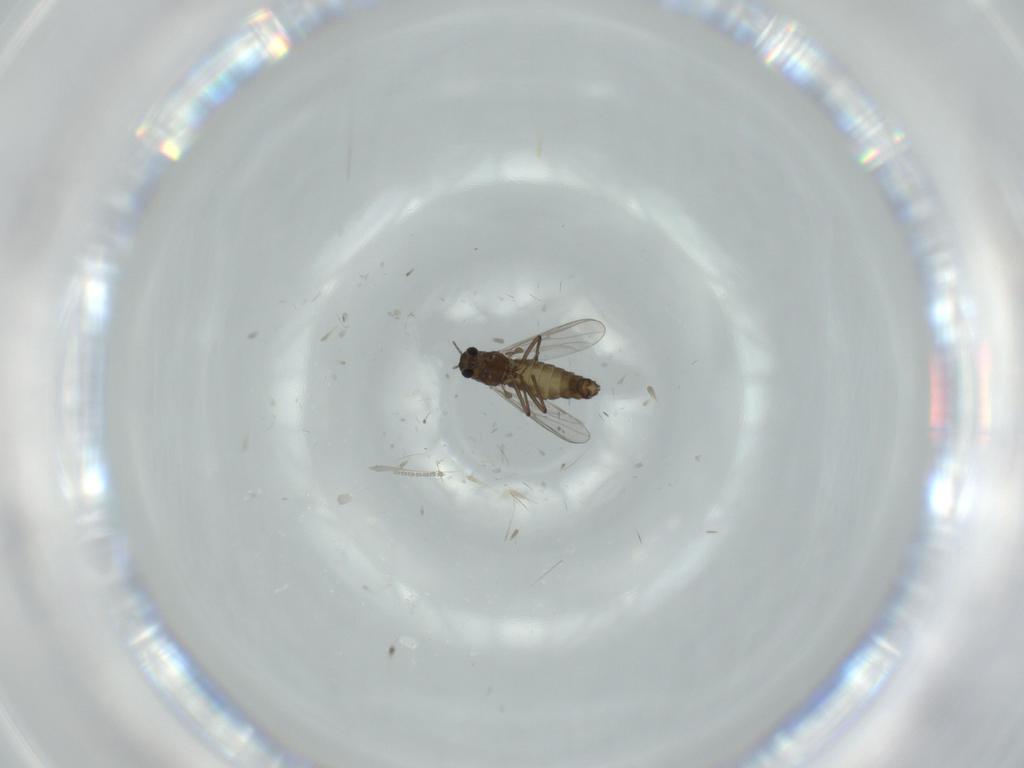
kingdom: Animalia
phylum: Arthropoda
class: Insecta
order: Diptera
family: Chironomidae
